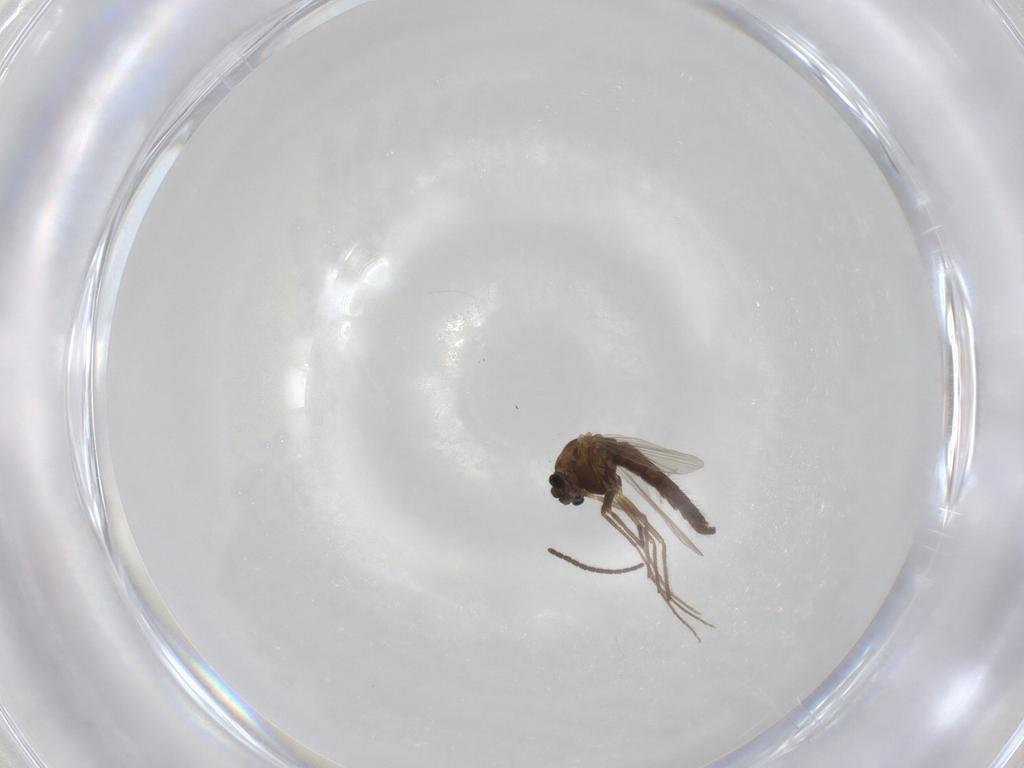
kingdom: Animalia
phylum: Arthropoda
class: Insecta
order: Diptera
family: Chironomidae
